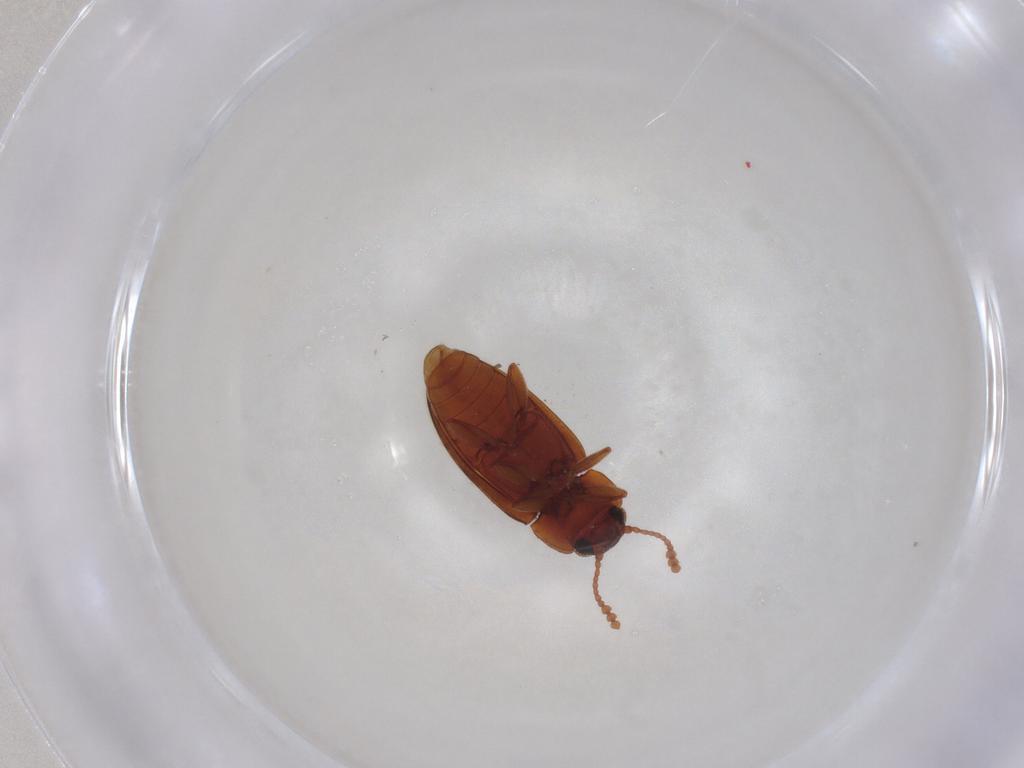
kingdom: Animalia
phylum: Arthropoda
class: Insecta
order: Coleoptera
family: Erotylidae
